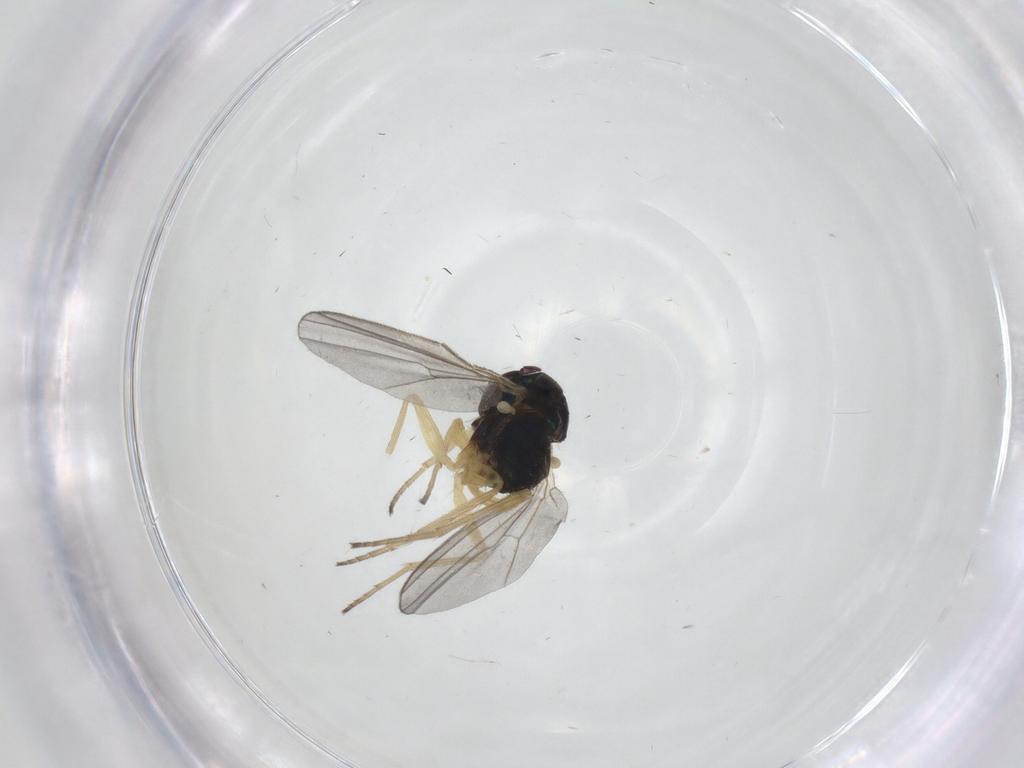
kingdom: Animalia
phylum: Arthropoda
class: Insecta
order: Diptera
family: Dolichopodidae
